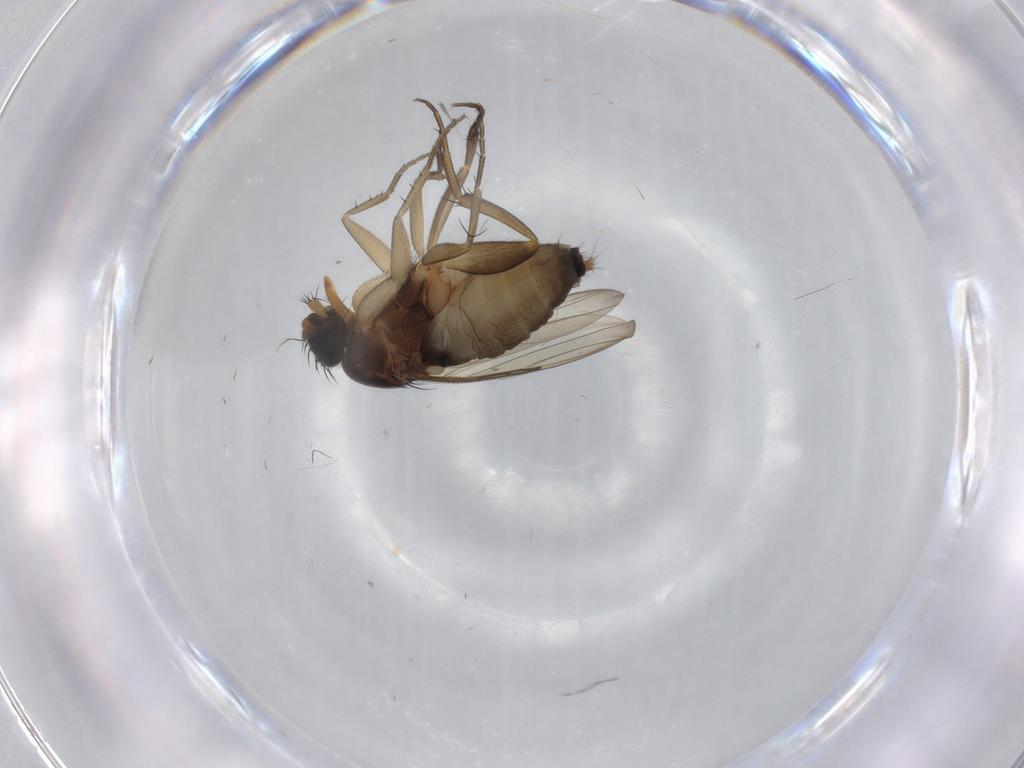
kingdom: Animalia
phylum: Arthropoda
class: Insecta
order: Diptera
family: Phoridae
